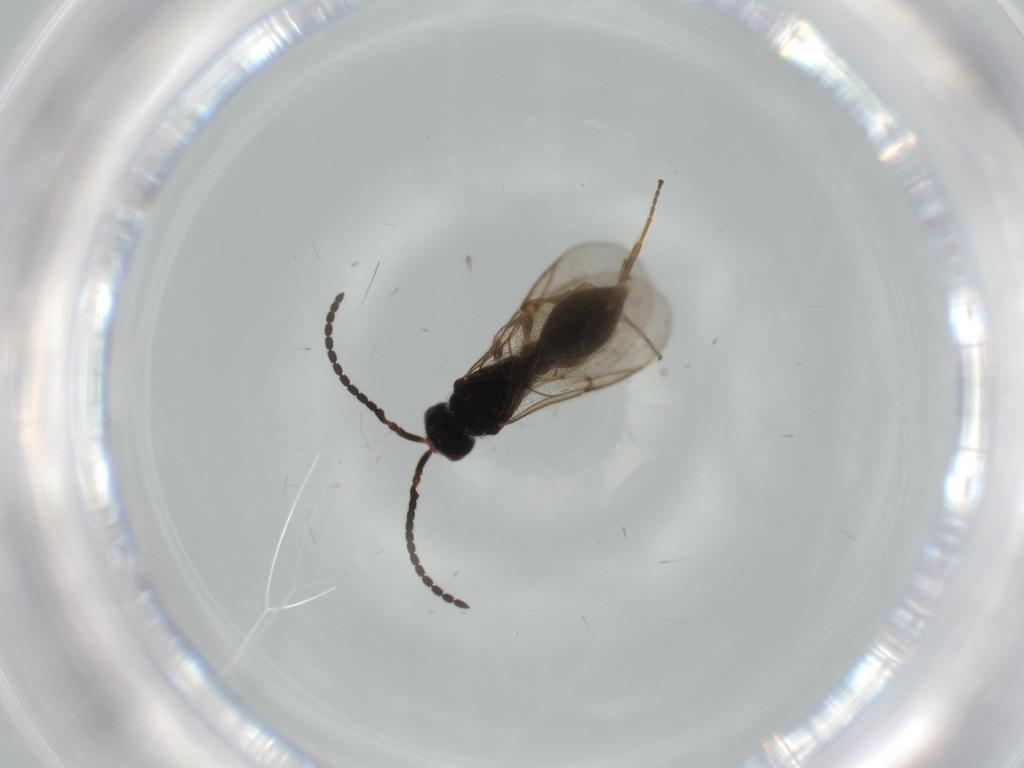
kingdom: Animalia
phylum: Arthropoda
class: Insecta
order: Hymenoptera
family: Diapriidae
